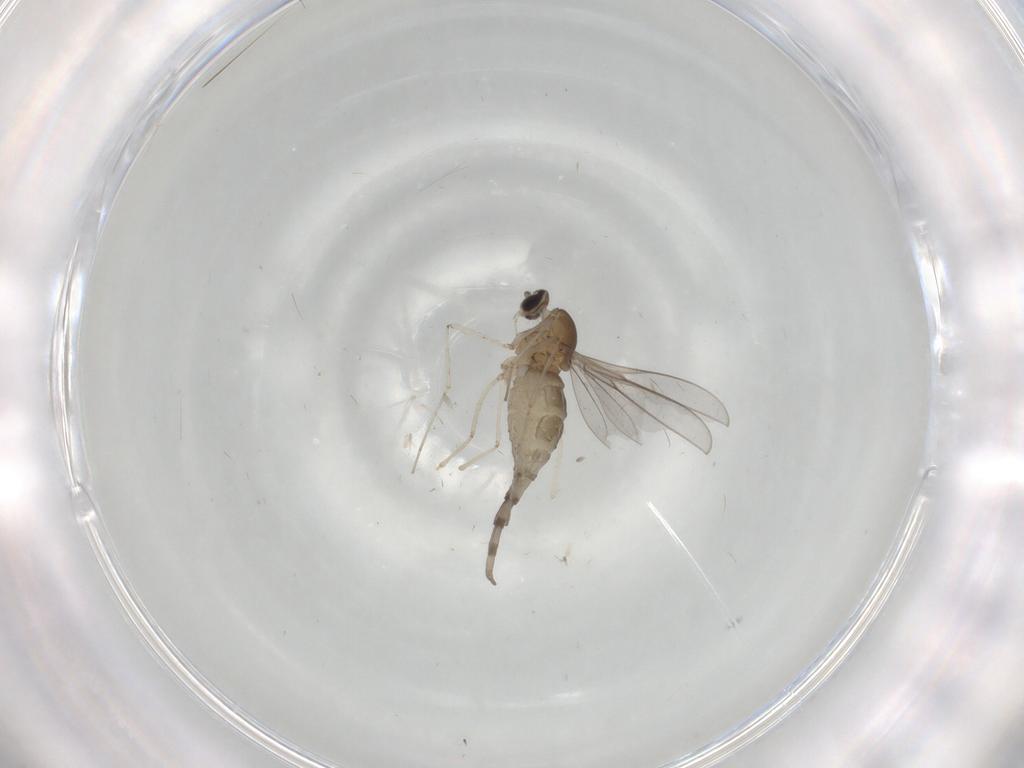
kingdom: Animalia
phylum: Arthropoda
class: Insecta
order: Diptera
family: Cecidomyiidae
